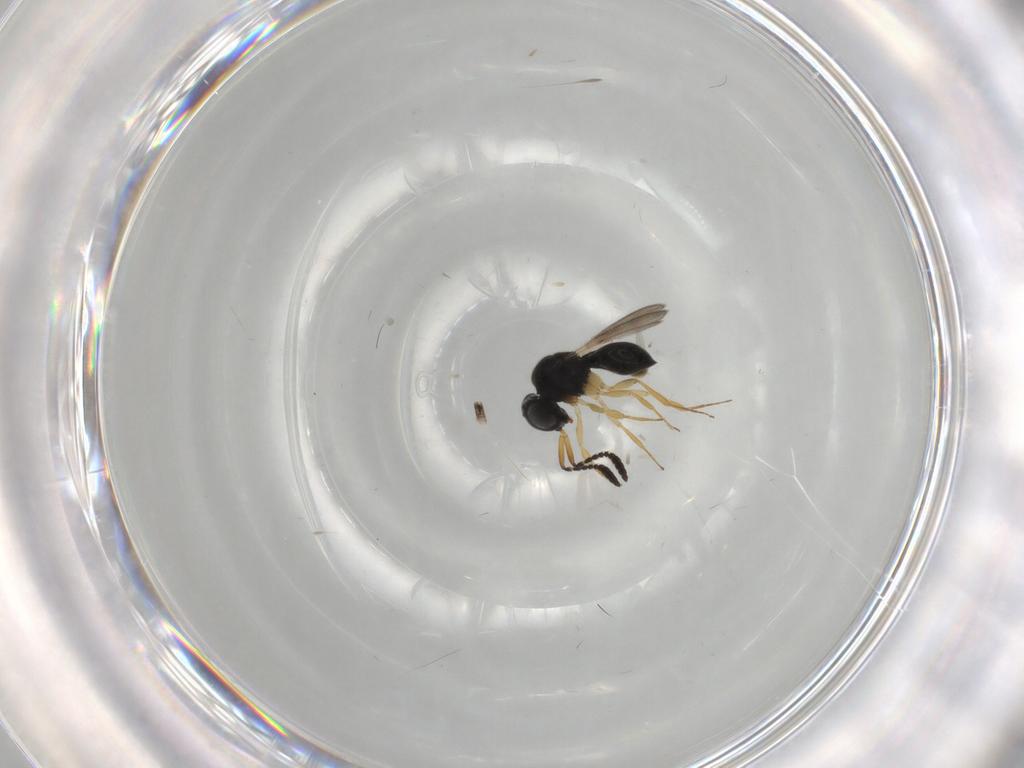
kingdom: Animalia
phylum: Arthropoda
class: Insecta
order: Hymenoptera
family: Scelionidae
